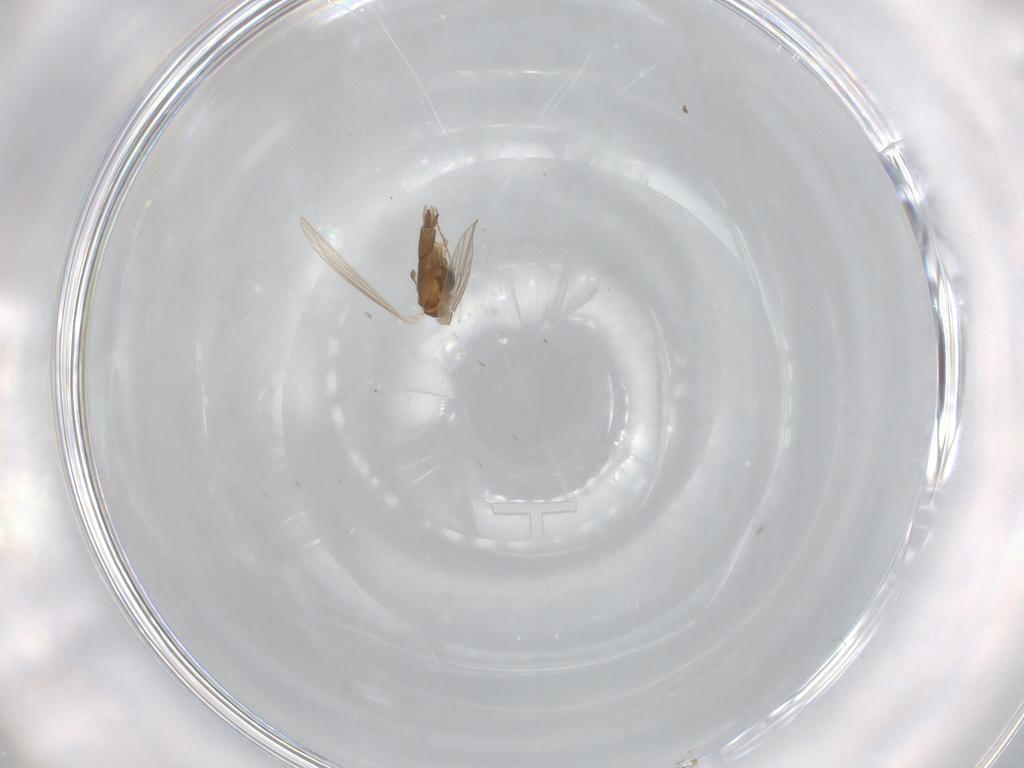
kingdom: Animalia
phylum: Arthropoda
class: Insecta
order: Diptera
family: Psychodidae
